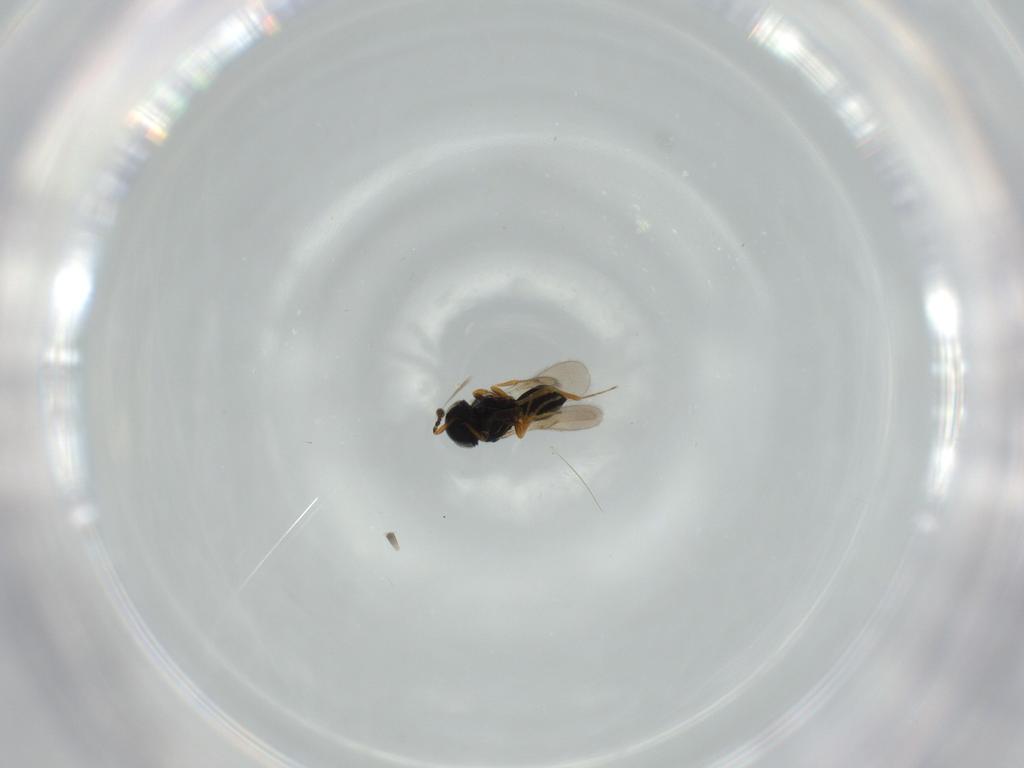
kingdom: Animalia
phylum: Arthropoda
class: Insecta
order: Hymenoptera
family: Scelionidae
